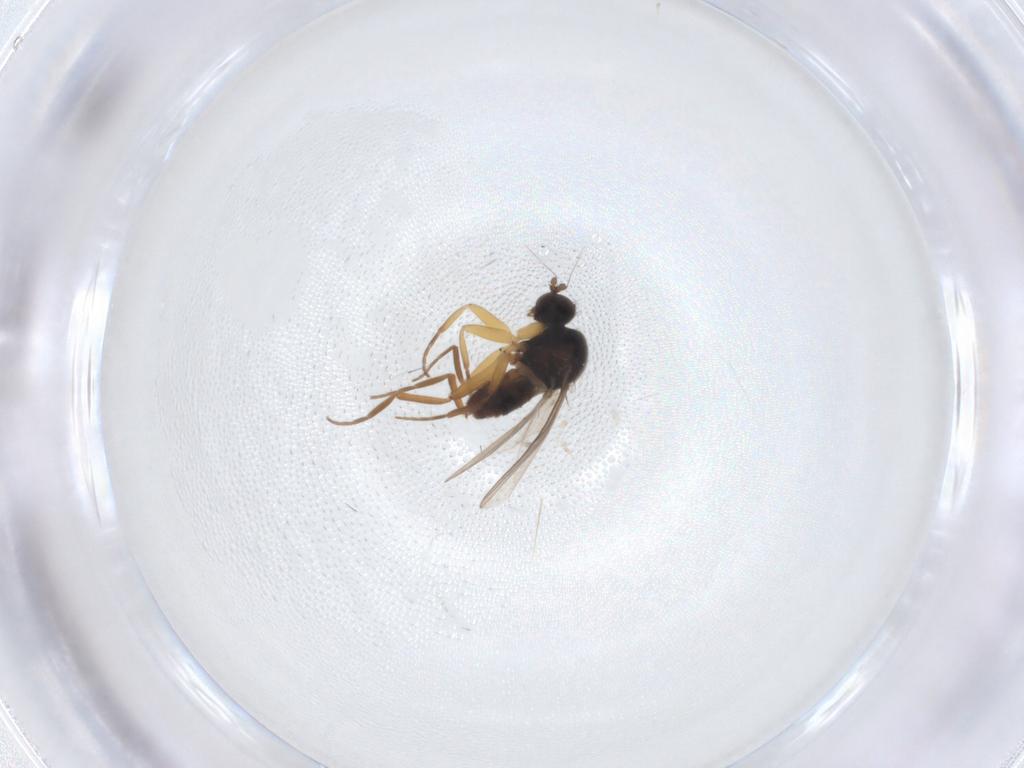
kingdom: Animalia
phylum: Arthropoda
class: Insecta
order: Diptera
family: Hybotidae
